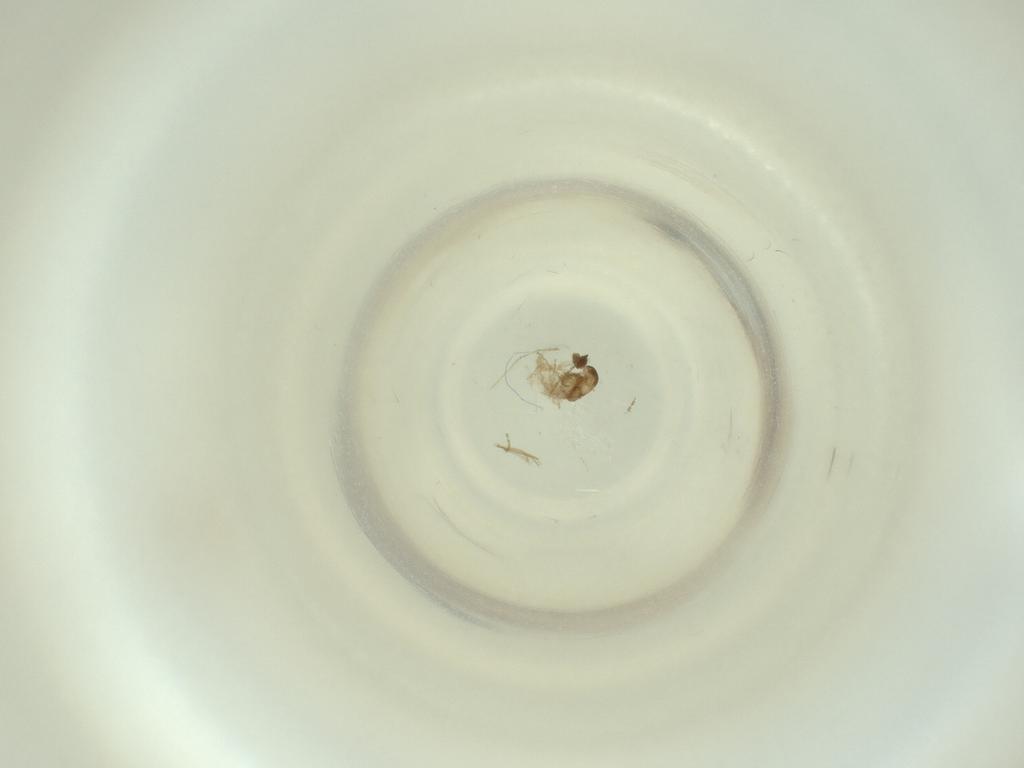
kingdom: Animalia
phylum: Arthropoda
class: Insecta
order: Diptera
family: Cecidomyiidae
